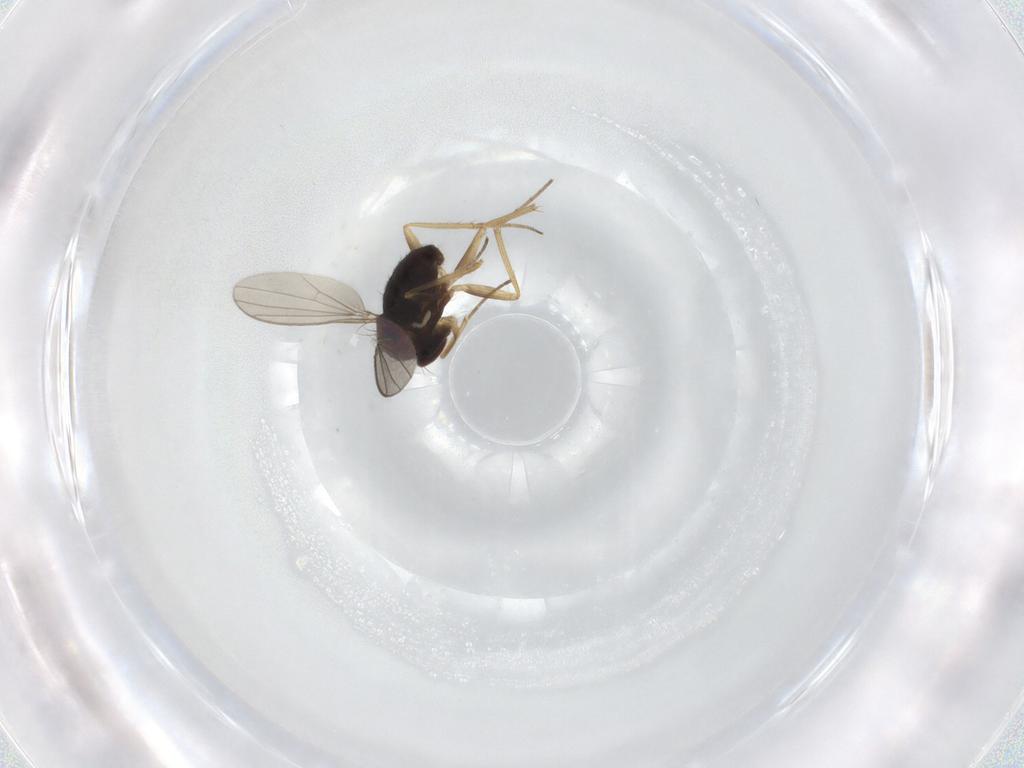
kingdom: Animalia
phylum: Arthropoda
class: Insecta
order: Diptera
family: Dolichopodidae
